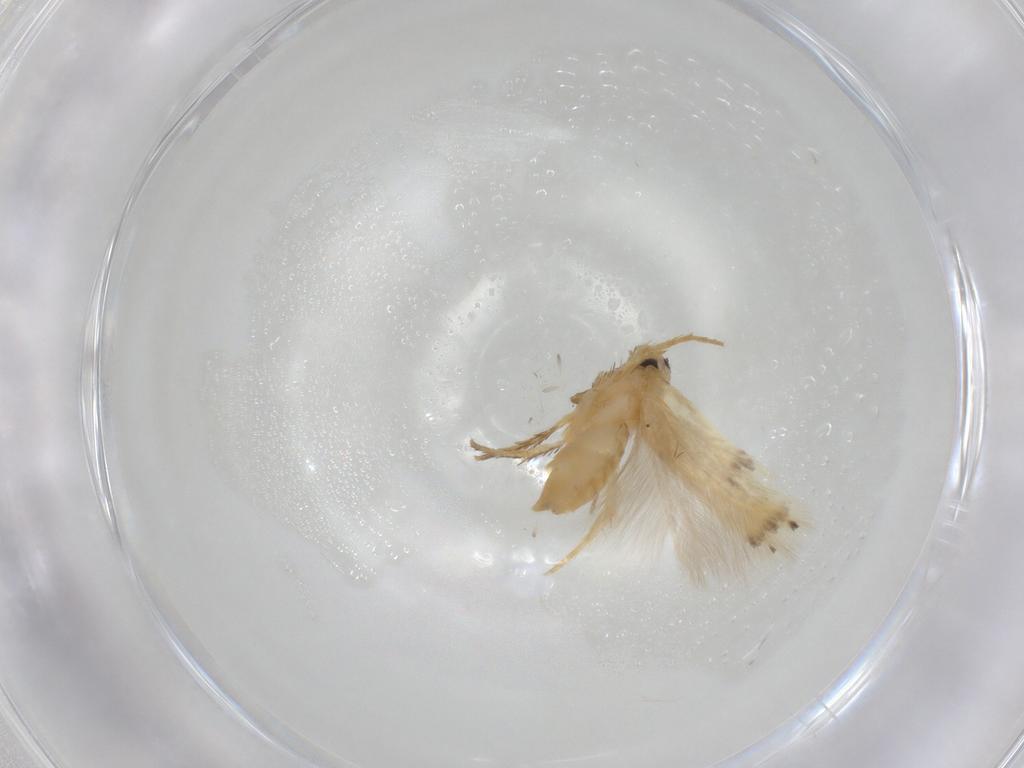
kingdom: Animalia
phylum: Arthropoda
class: Insecta
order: Lepidoptera
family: Opostegidae
